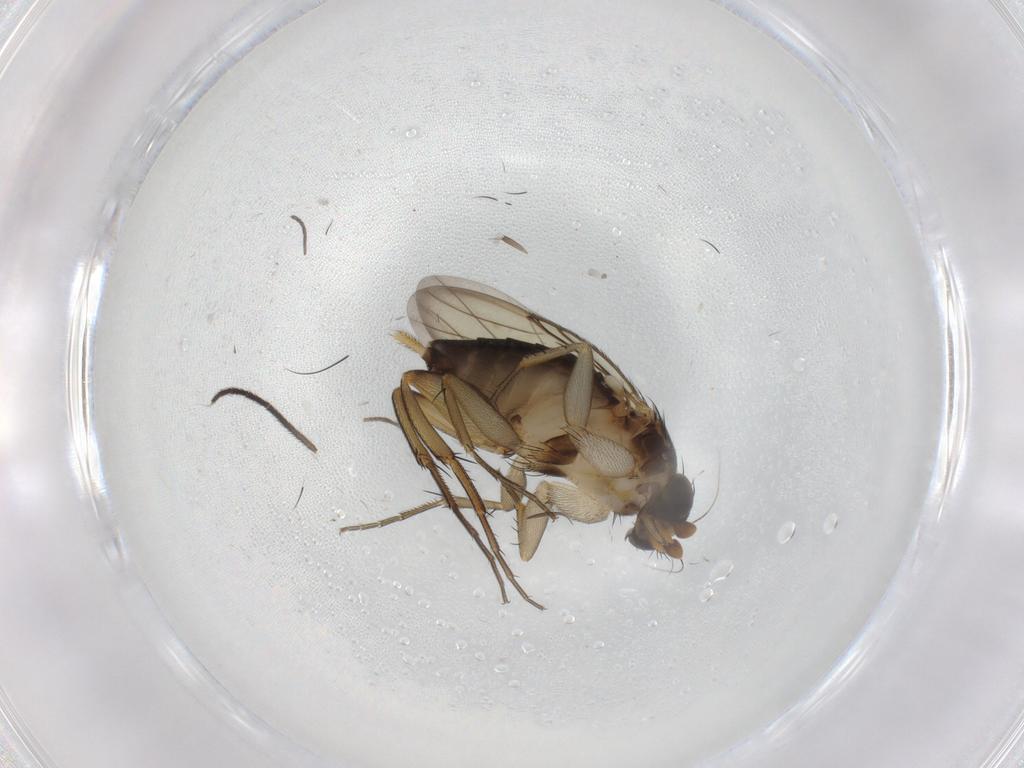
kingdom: Animalia
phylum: Arthropoda
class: Insecta
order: Diptera
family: Phoridae
